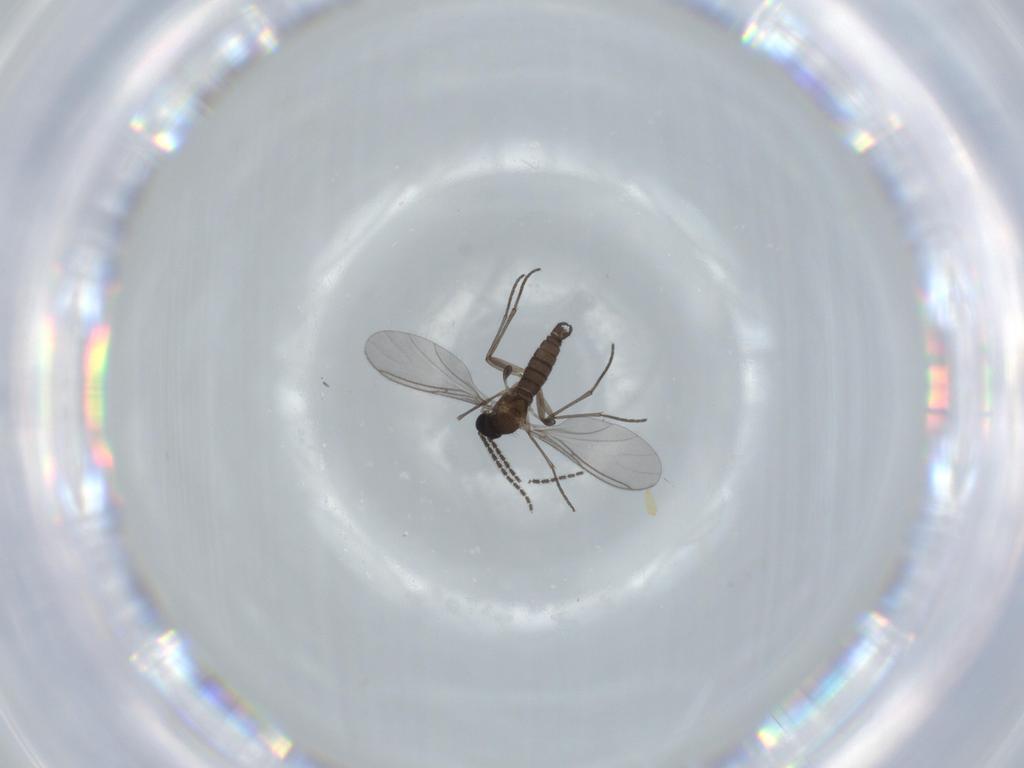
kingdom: Animalia
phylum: Arthropoda
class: Insecta
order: Diptera
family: Sciaridae
